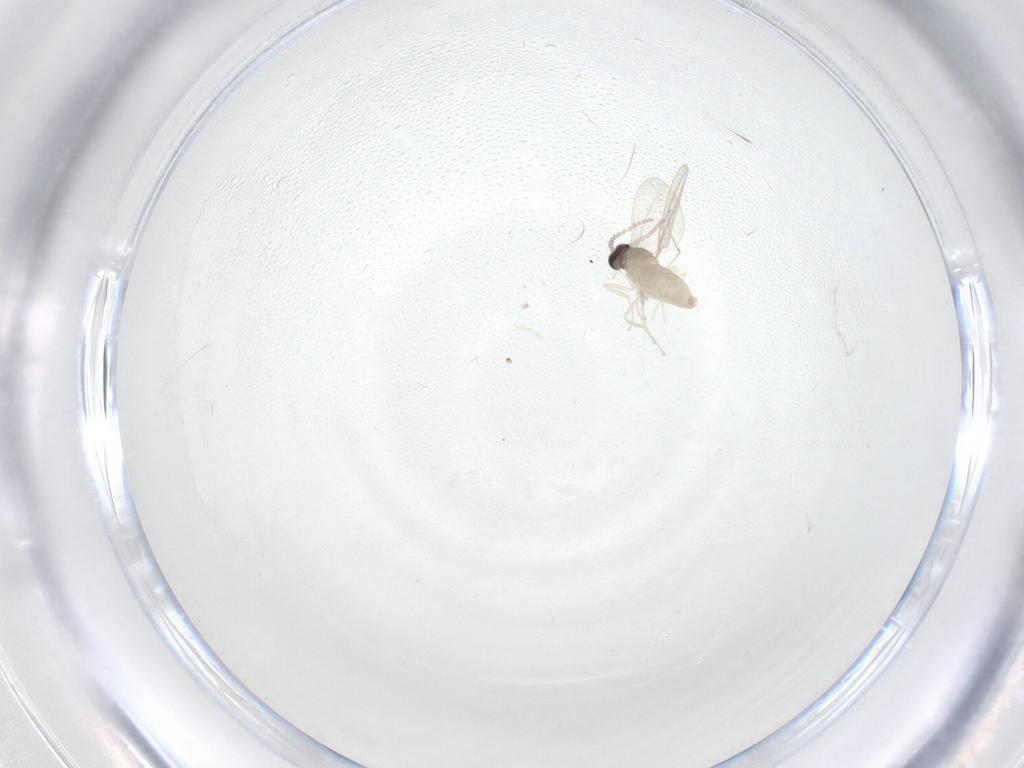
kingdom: Animalia
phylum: Arthropoda
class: Insecta
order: Diptera
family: Cecidomyiidae
